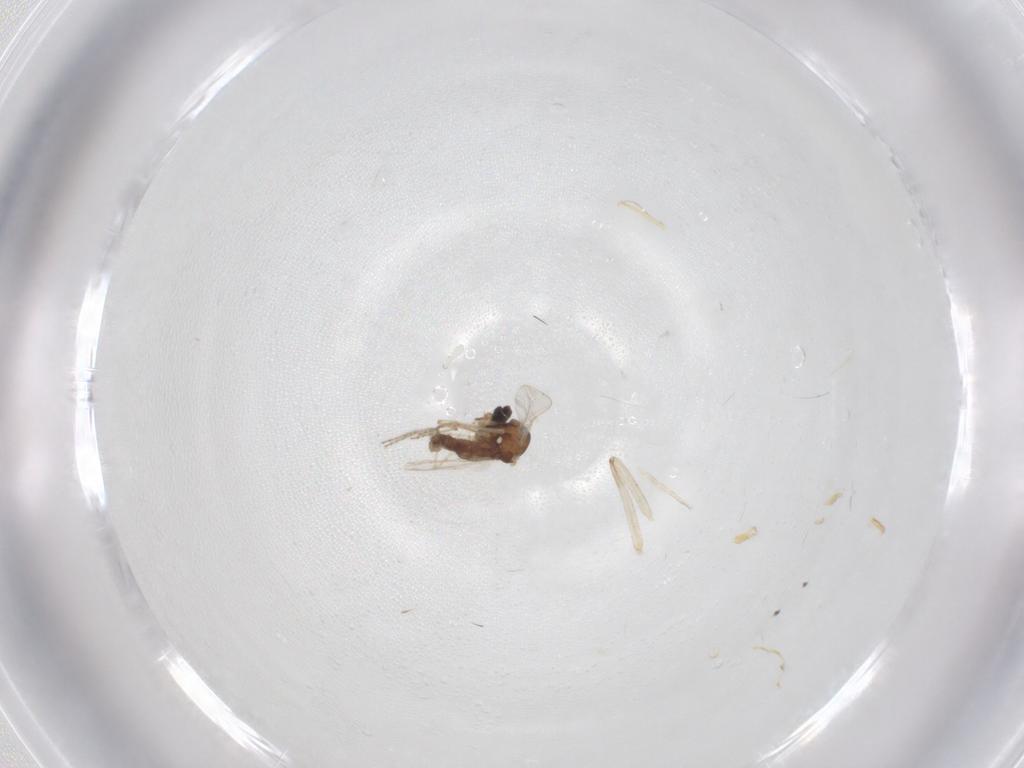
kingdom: Animalia
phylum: Arthropoda
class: Insecta
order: Diptera
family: Ceratopogonidae
